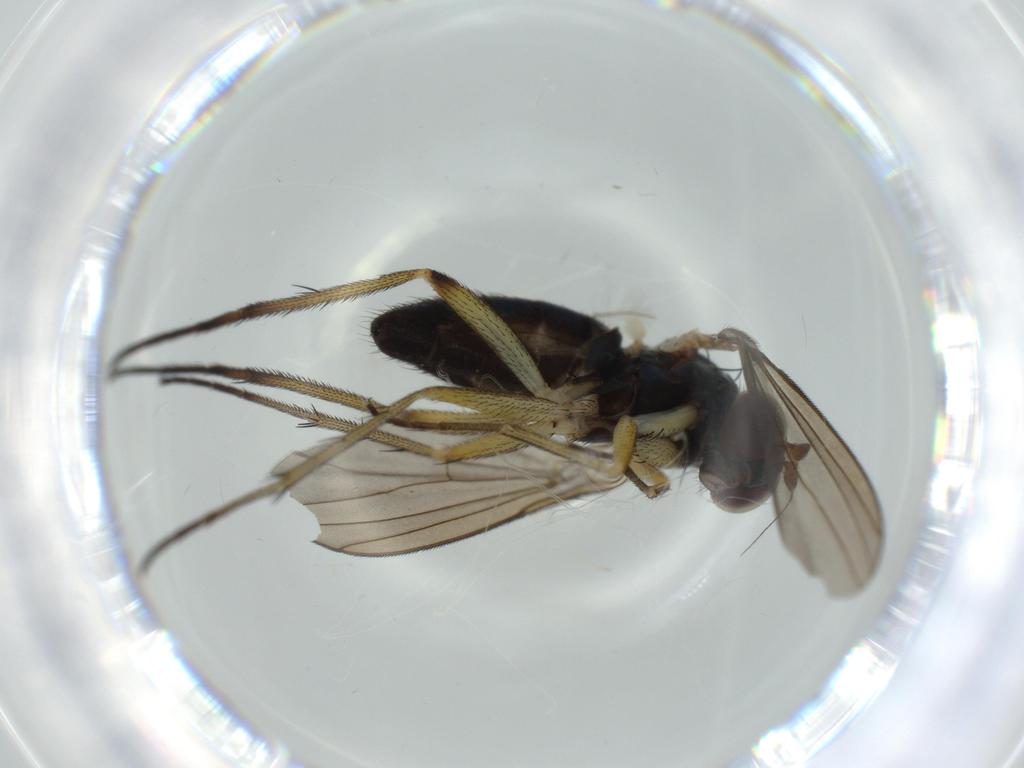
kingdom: Animalia
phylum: Arthropoda
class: Insecta
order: Diptera
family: Dolichopodidae
